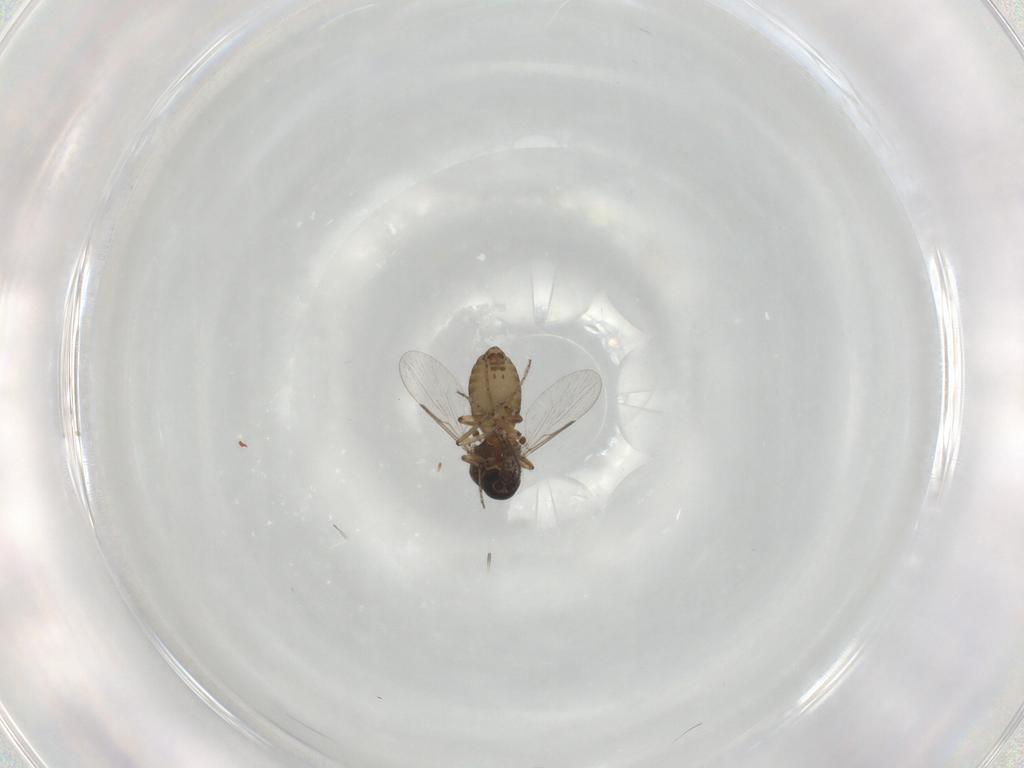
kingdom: Animalia
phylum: Arthropoda
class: Insecta
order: Diptera
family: Ceratopogonidae
